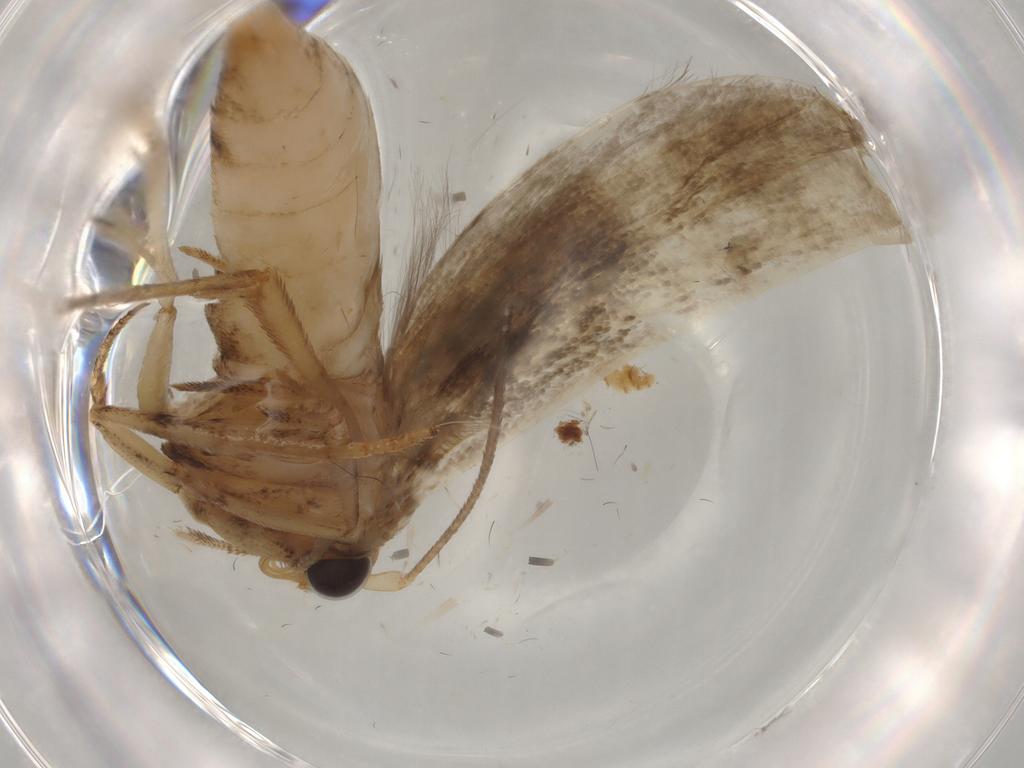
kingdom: Animalia
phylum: Arthropoda
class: Insecta
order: Lepidoptera
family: Yponomeutidae
